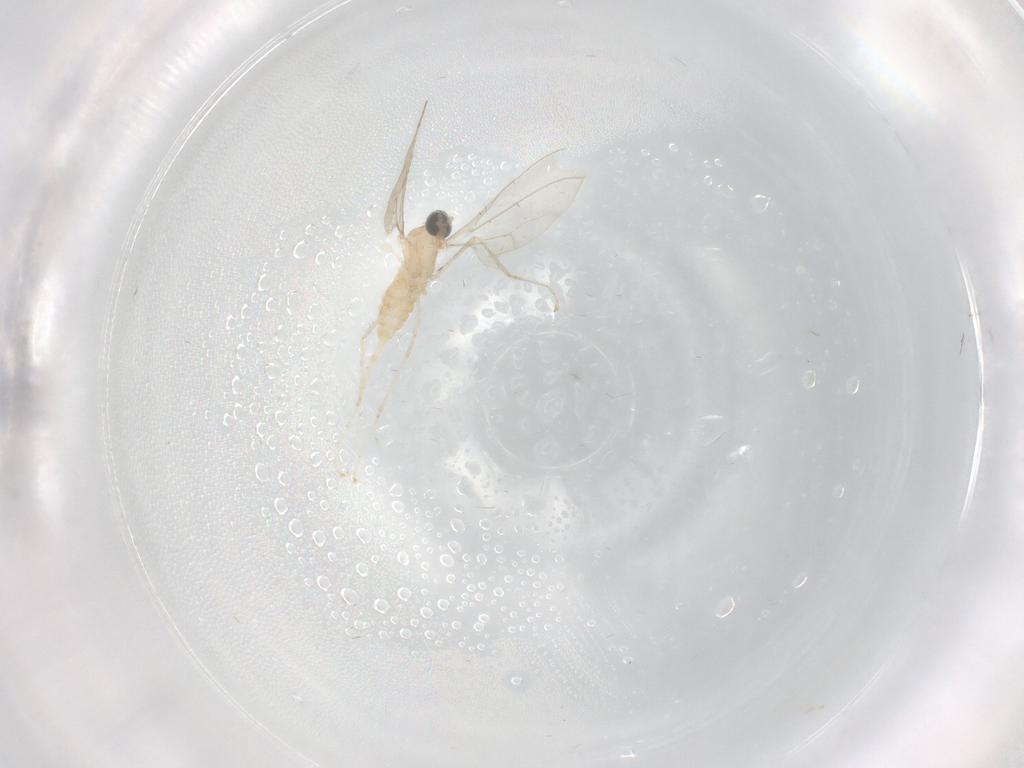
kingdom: Animalia
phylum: Arthropoda
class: Insecta
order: Diptera
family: Cecidomyiidae
